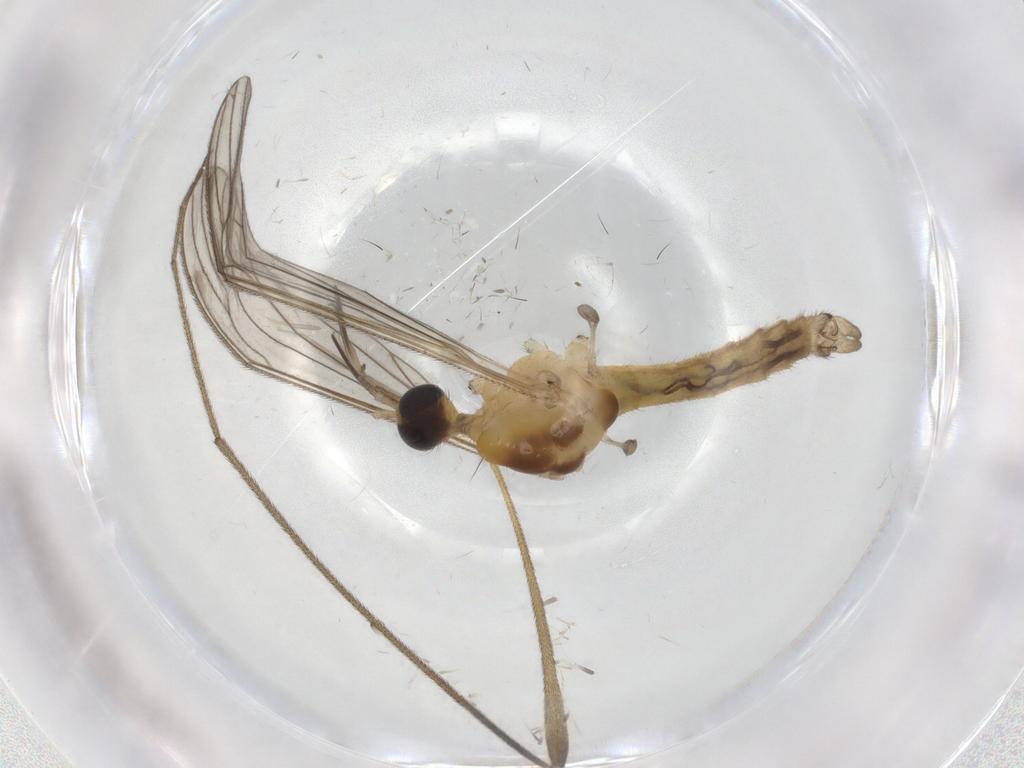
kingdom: Animalia
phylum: Arthropoda
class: Insecta
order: Diptera
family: Limoniidae
